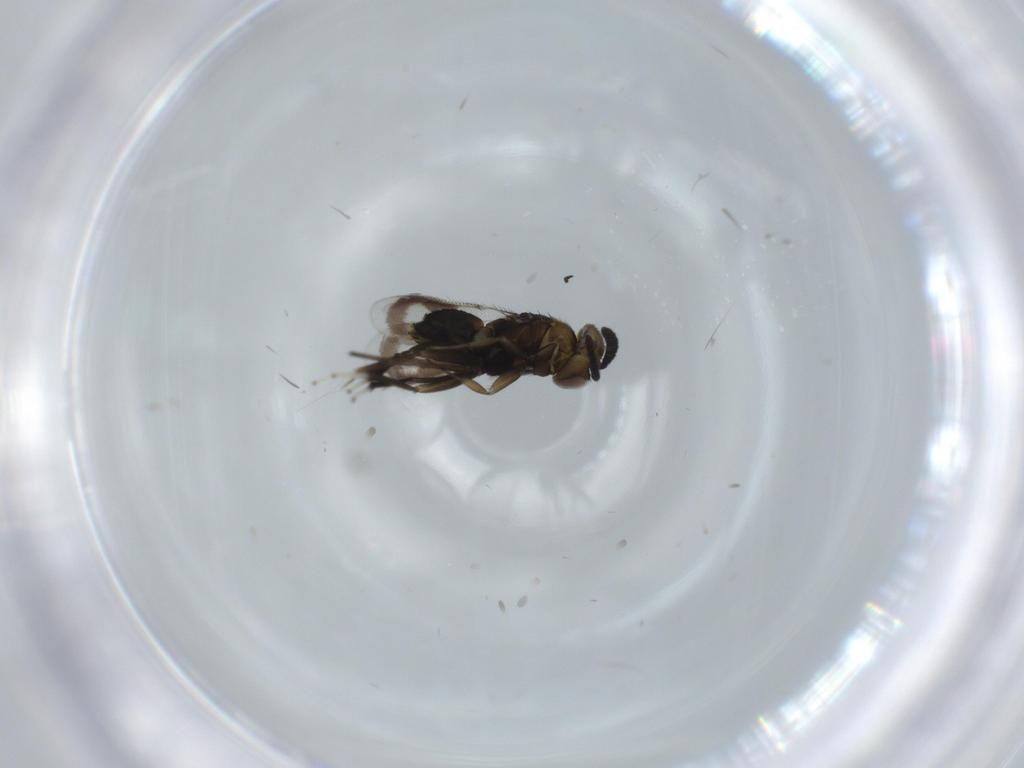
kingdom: Animalia
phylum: Arthropoda
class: Insecta
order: Hymenoptera
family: Aphelinidae
